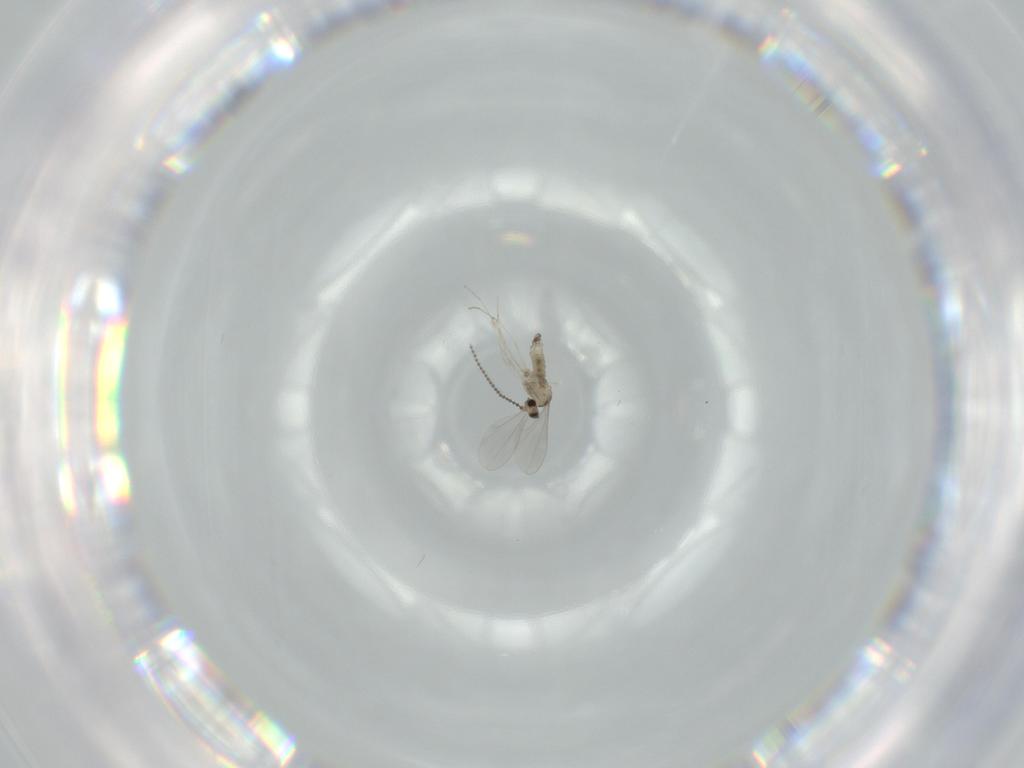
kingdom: Animalia
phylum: Arthropoda
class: Insecta
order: Diptera
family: Cecidomyiidae
